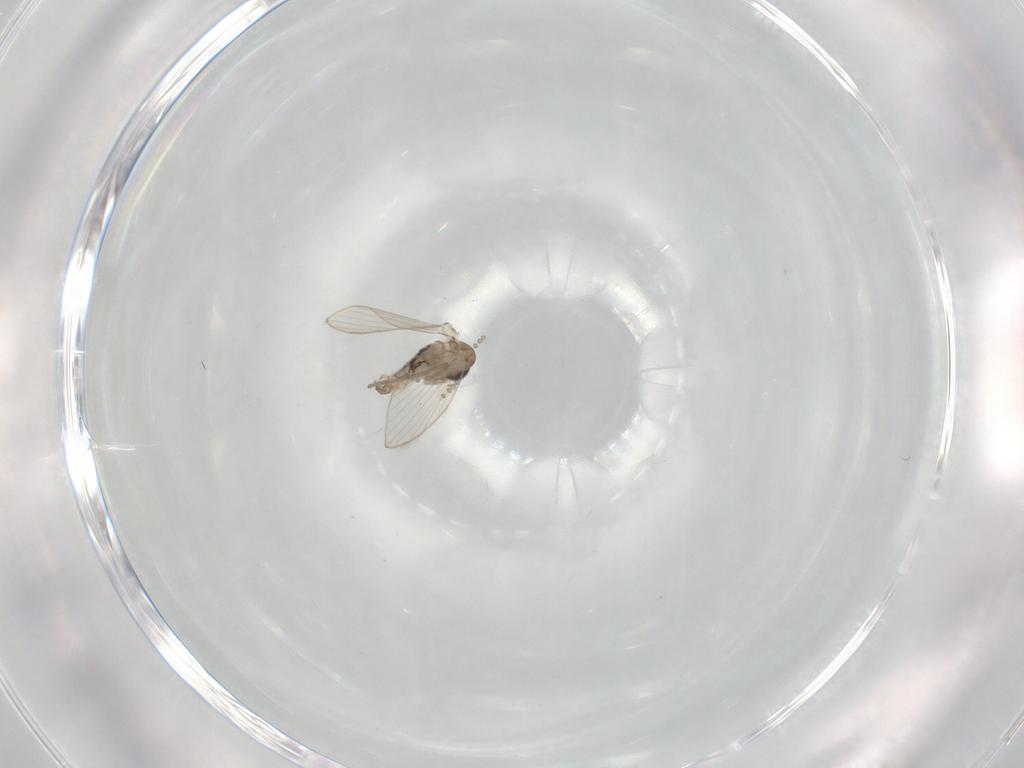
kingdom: Animalia
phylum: Arthropoda
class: Insecta
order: Diptera
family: Psychodidae
